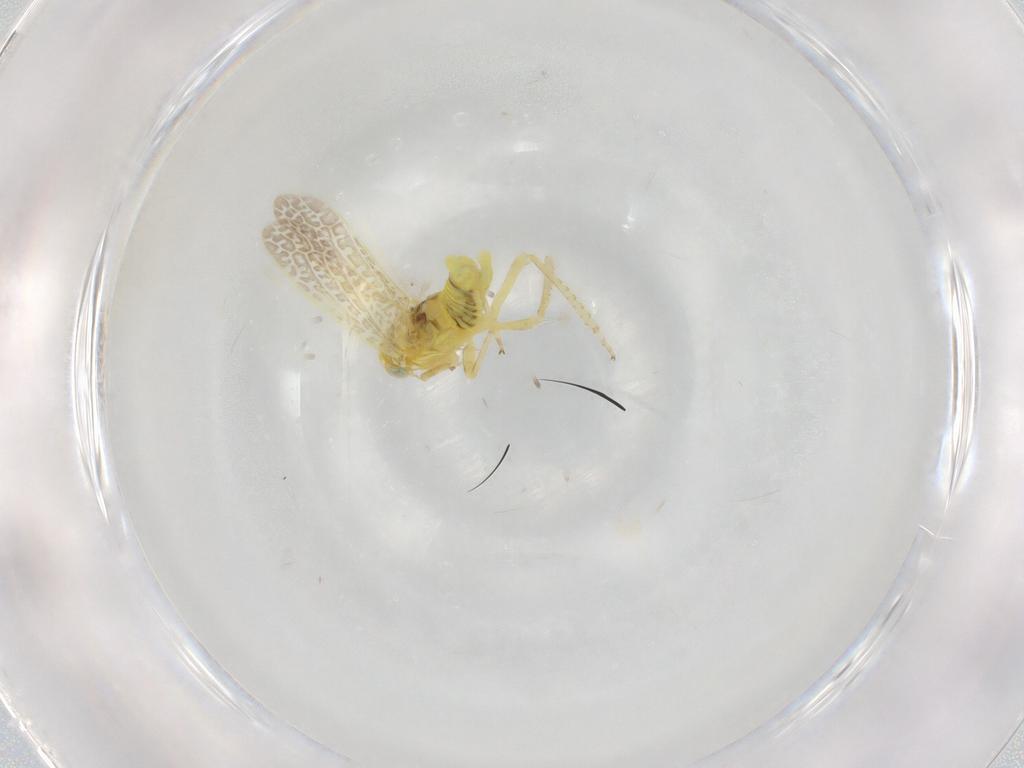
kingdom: Animalia
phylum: Arthropoda
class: Insecta
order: Hemiptera
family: Cicadellidae
